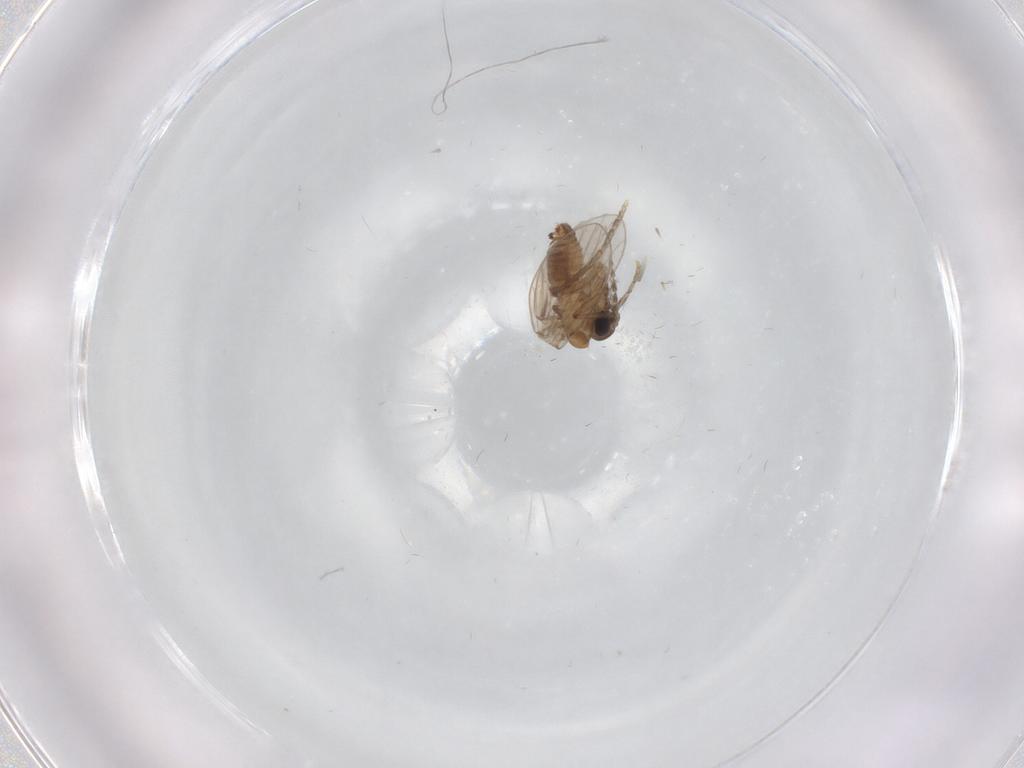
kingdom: Animalia
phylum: Arthropoda
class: Insecta
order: Diptera
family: Psychodidae
